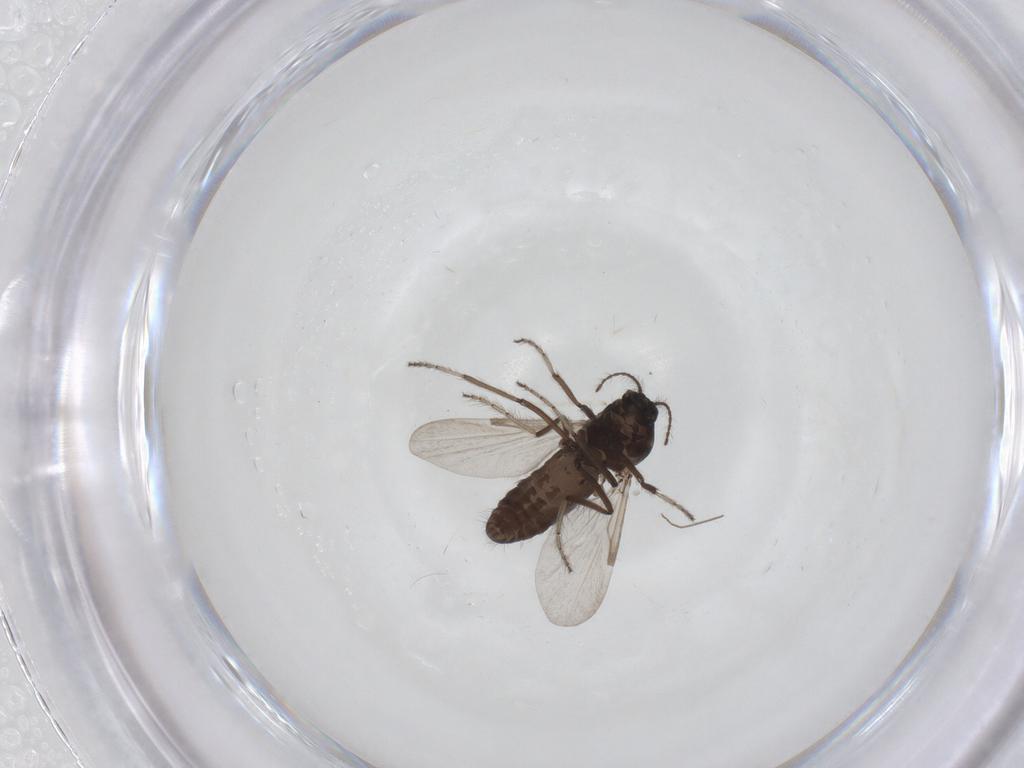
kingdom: Animalia
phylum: Arthropoda
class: Insecta
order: Diptera
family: Ceratopogonidae
